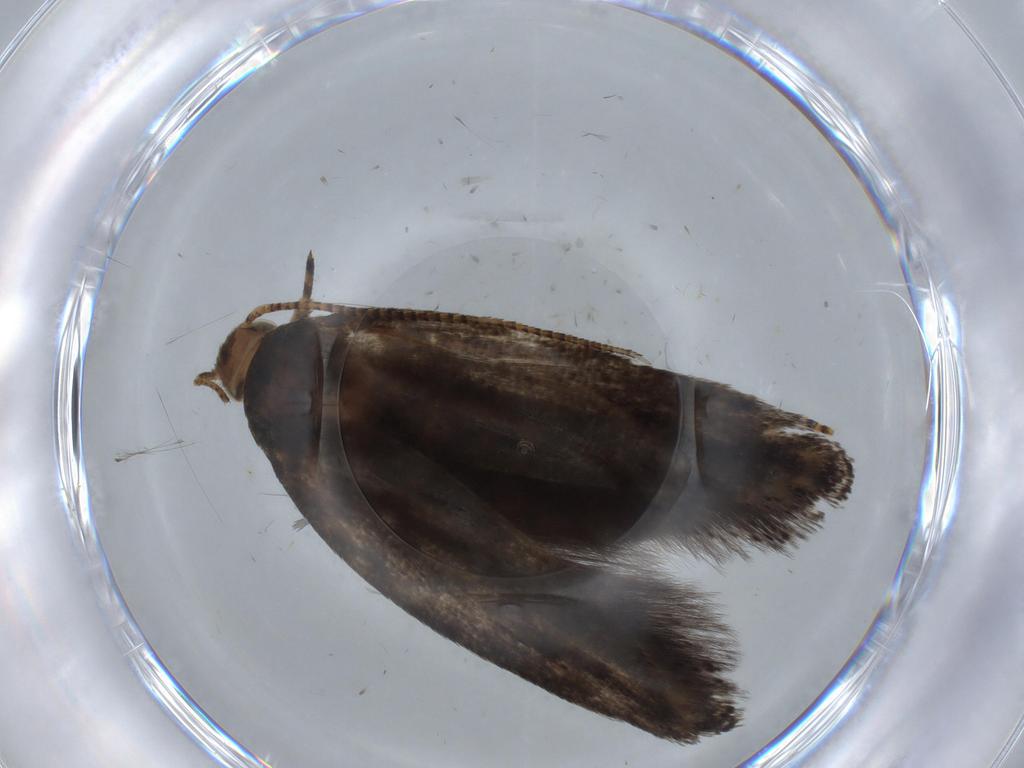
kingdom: Animalia
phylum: Arthropoda
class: Insecta
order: Lepidoptera
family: Gelechiidae
